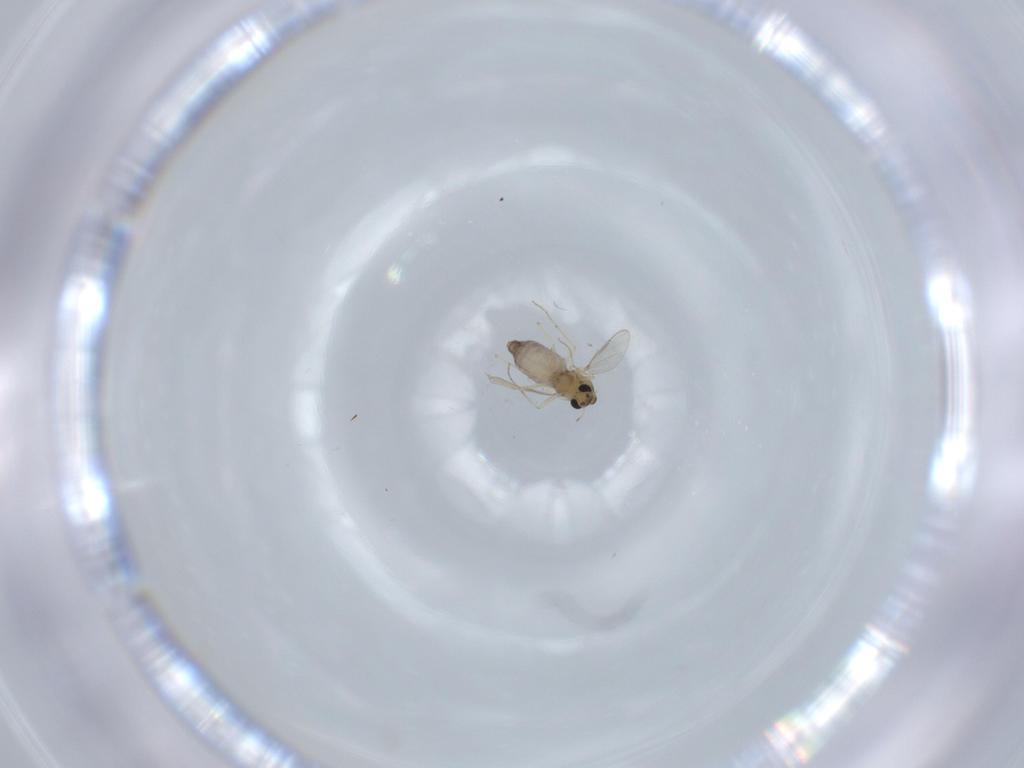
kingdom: Animalia
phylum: Arthropoda
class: Insecta
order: Diptera
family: Chironomidae
